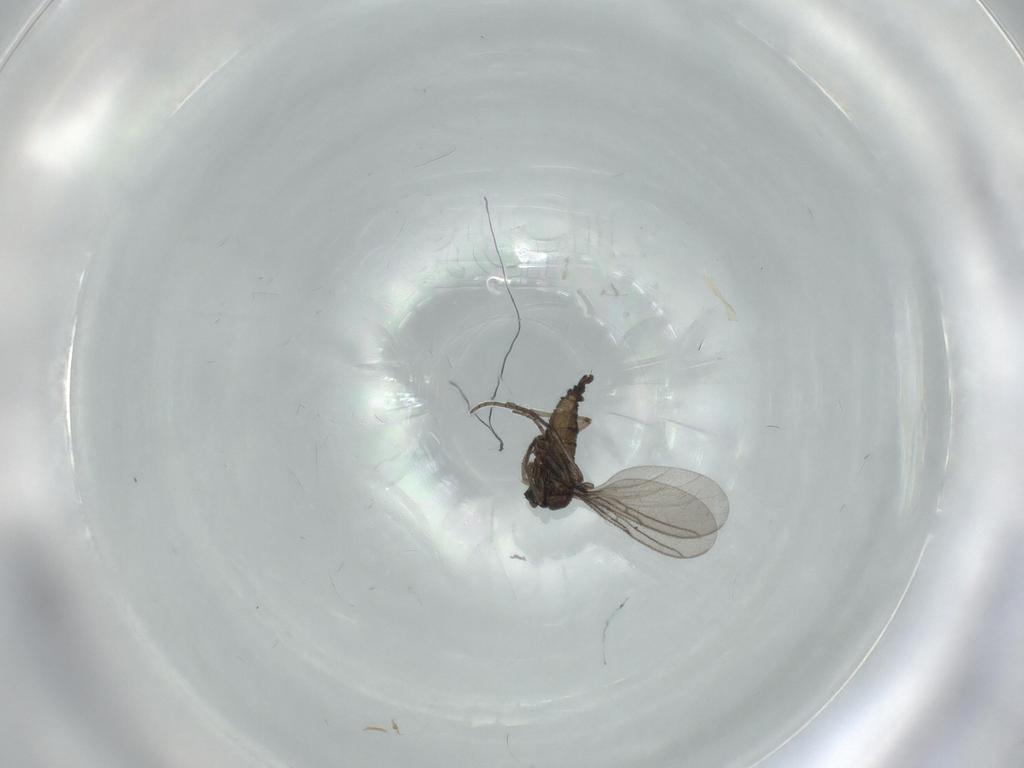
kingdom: Animalia
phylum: Arthropoda
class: Insecta
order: Diptera
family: Ceratopogonidae
